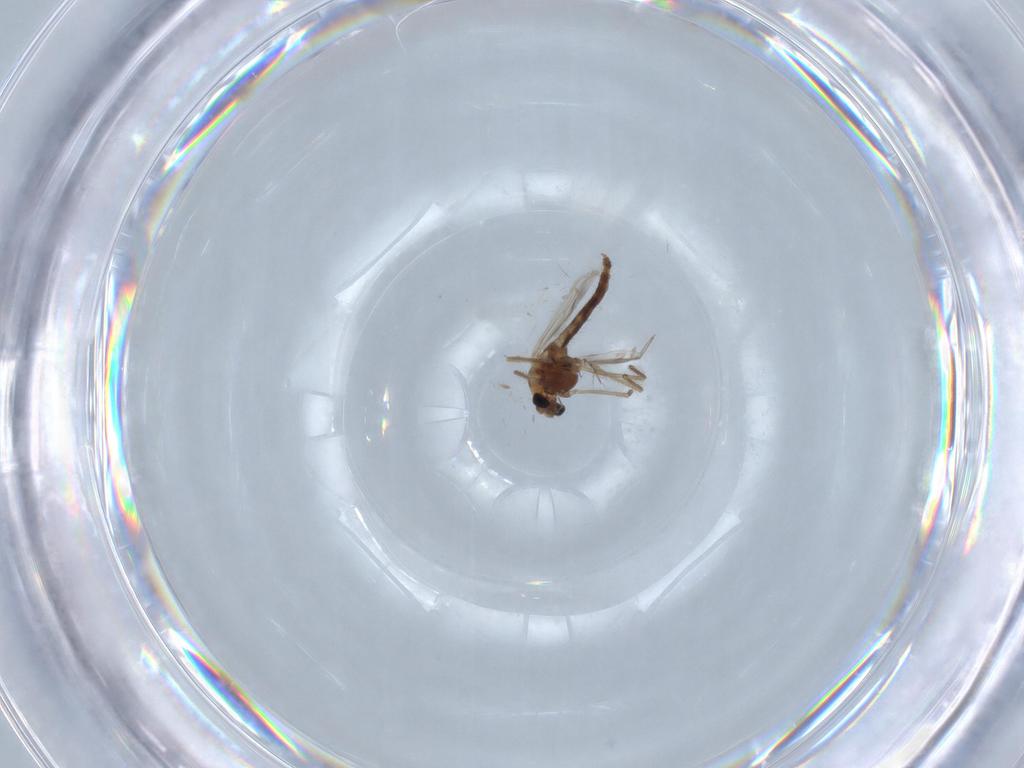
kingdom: Animalia
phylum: Arthropoda
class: Insecta
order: Diptera
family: Chironomidae
